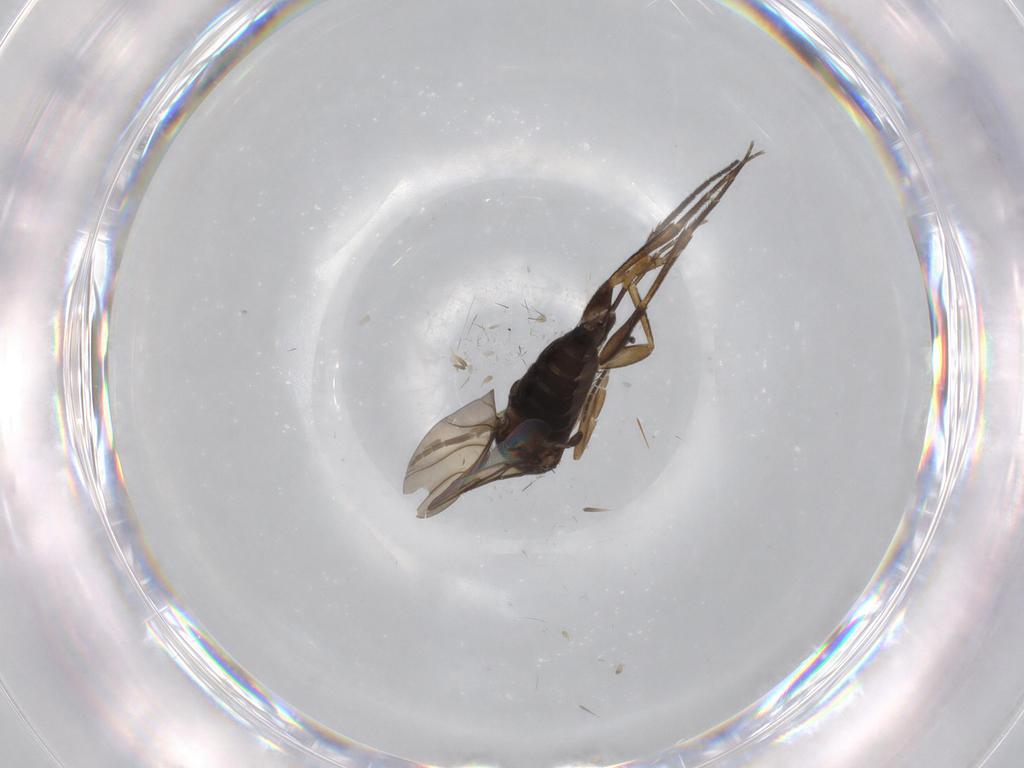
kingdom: Animalia
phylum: Arthropoda
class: Insecta
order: Diptera
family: Phoridae
